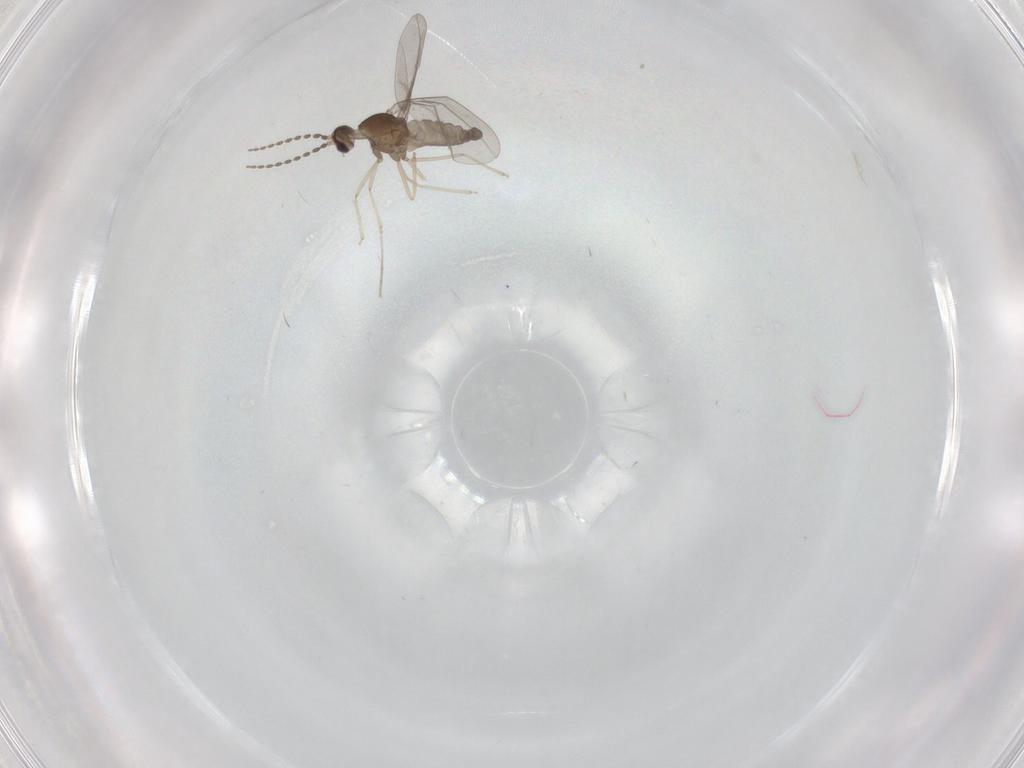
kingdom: Animalia
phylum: Arthropoda
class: Insecta
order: Diptera
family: Cecidomyiidae
